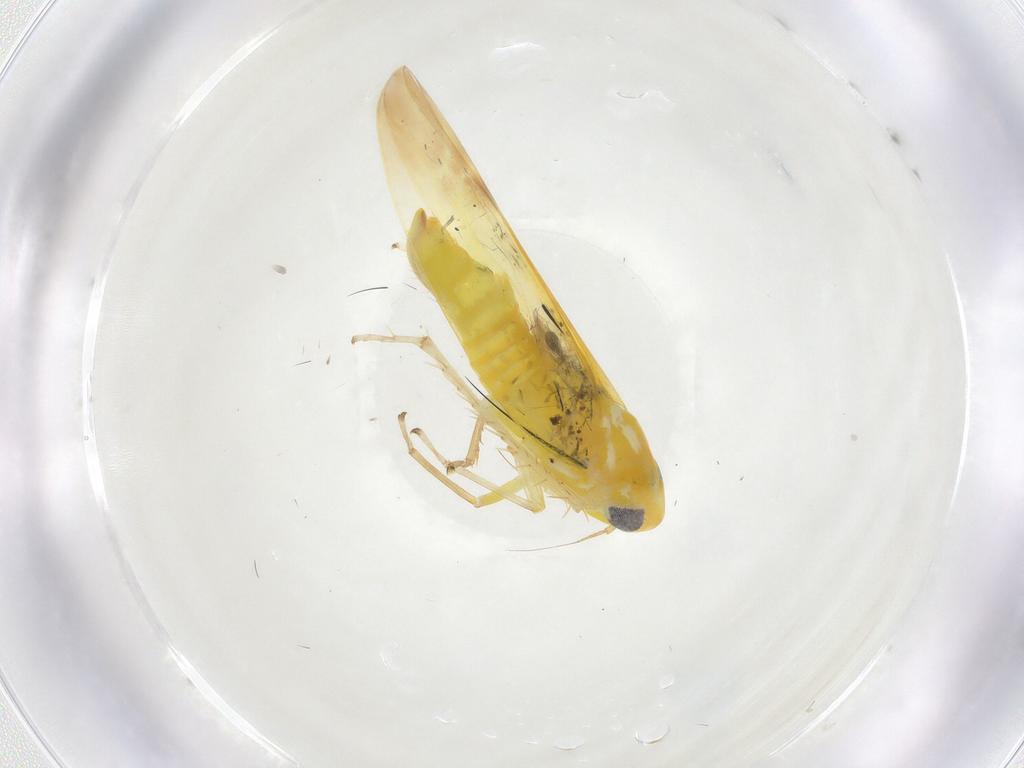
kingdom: Animalia
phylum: Arthropoda
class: Insecta
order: Hemiptera
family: Cicadellidae
